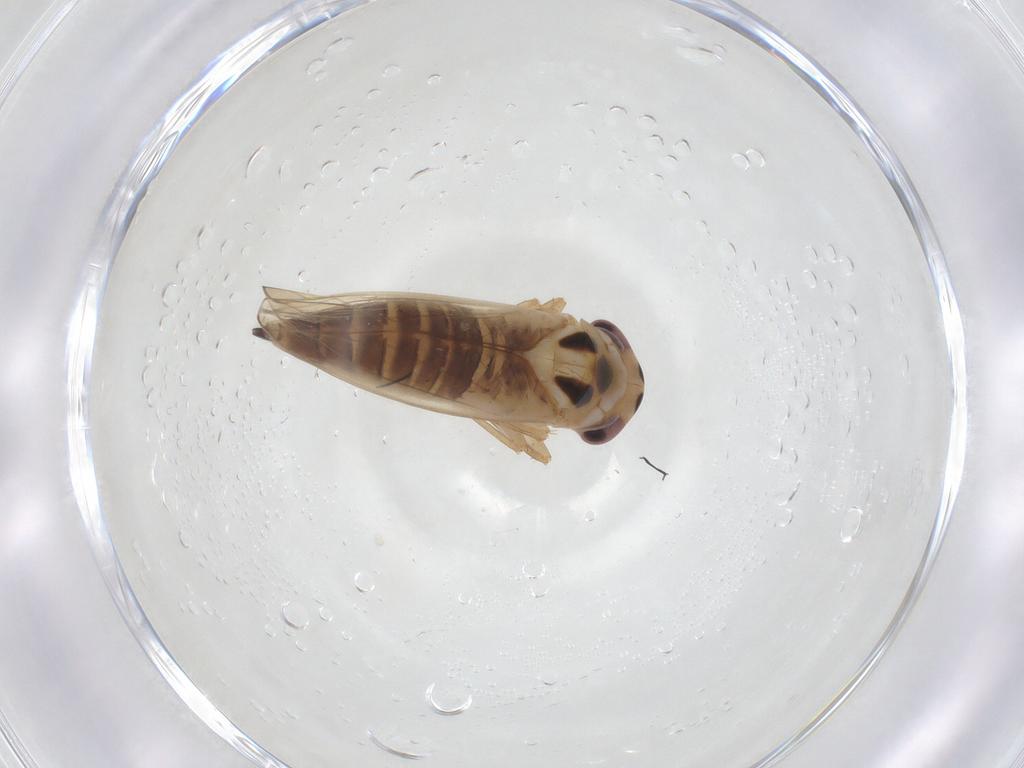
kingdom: Animalia
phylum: Arthropoda
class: Insecta
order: Hemiptera
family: Cicadellidae
